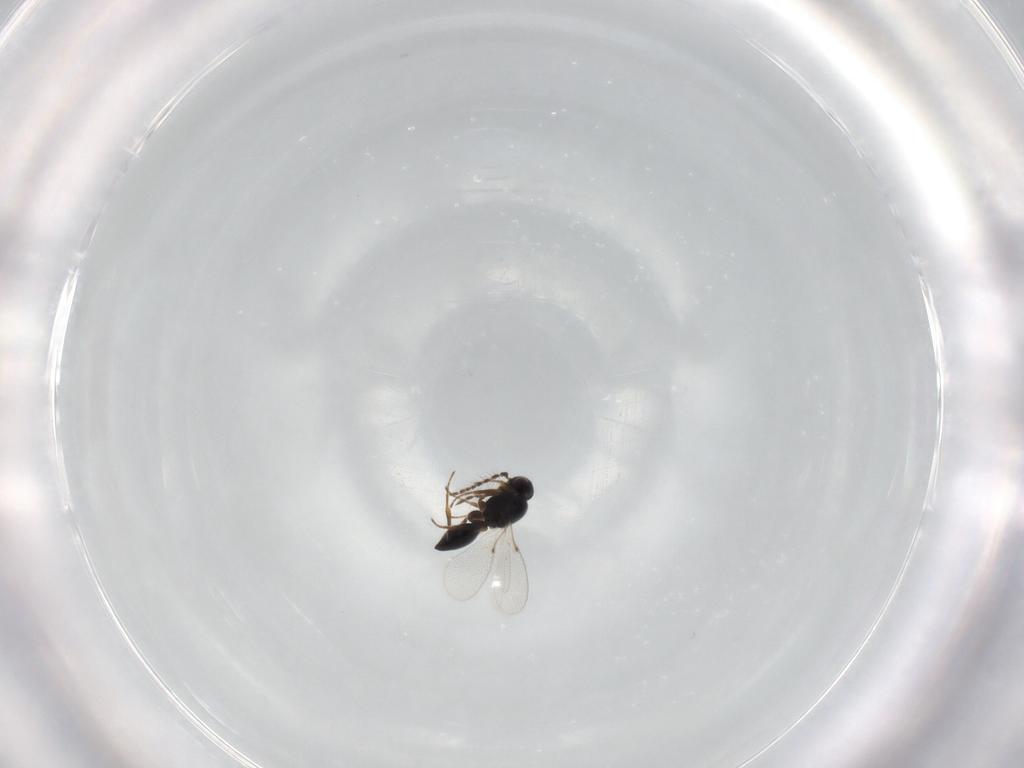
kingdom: Animalia
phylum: Arthropoda
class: Insecta
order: Hymenoptera
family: Platygastridae
